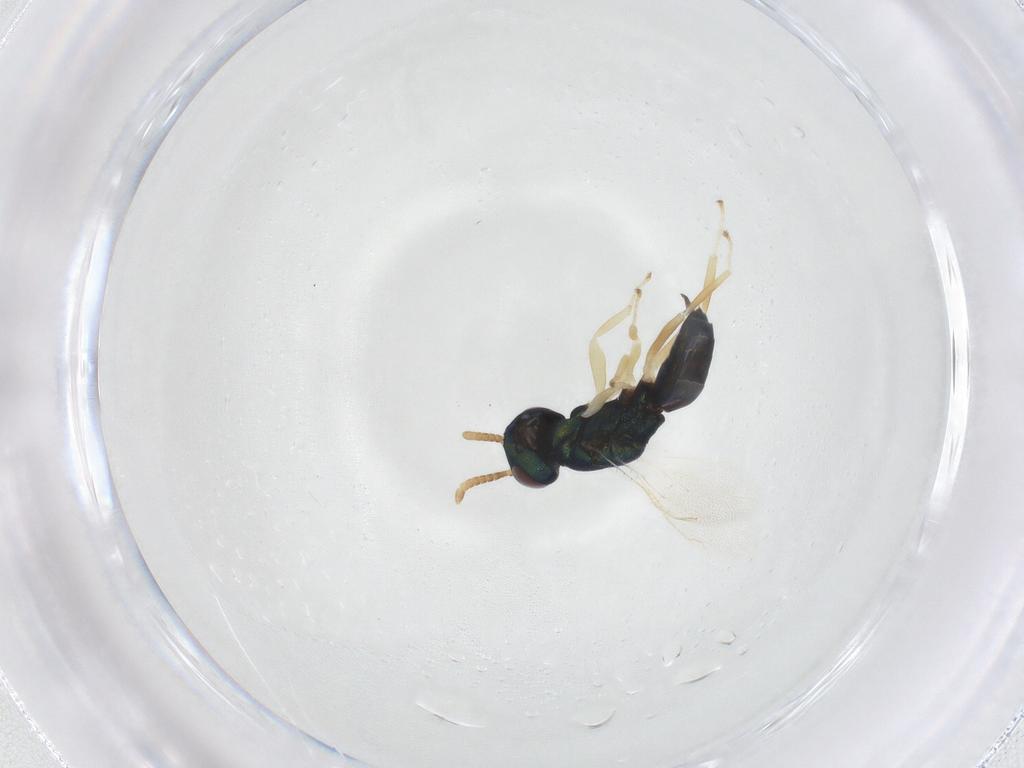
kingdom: Animalia
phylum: Arthropoda
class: Insecta
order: Hymenoptera
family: Pteromalidae
